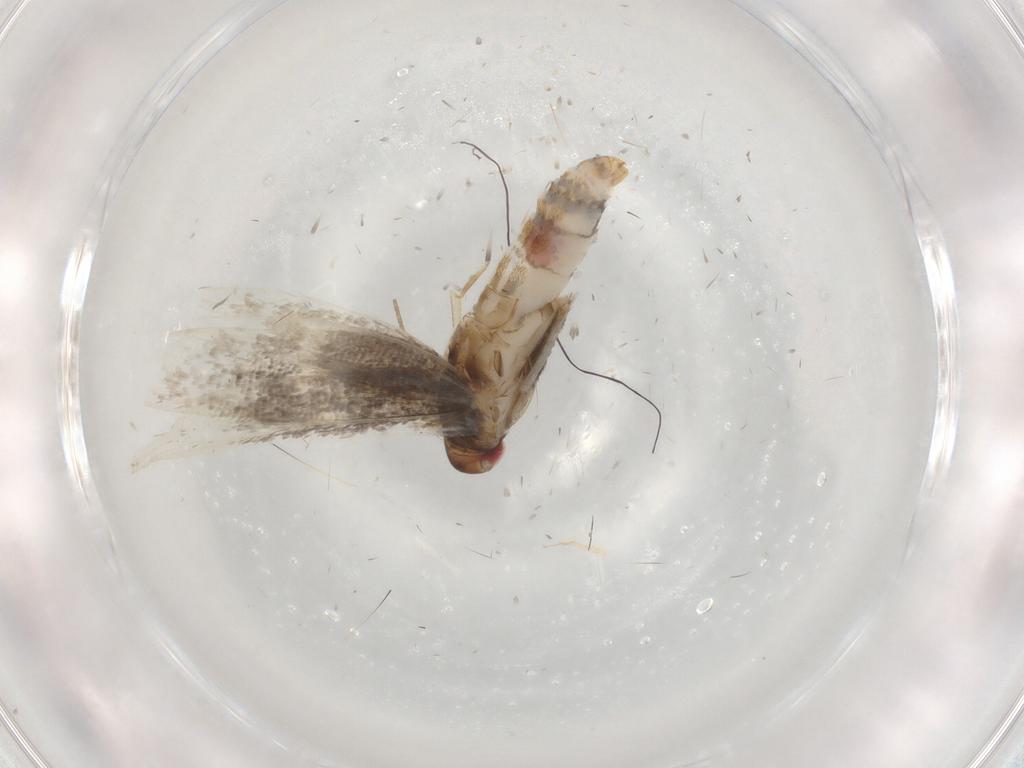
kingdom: Animalia
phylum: Arthropoda
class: Insecta
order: Lepidoptera
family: Momphidae
